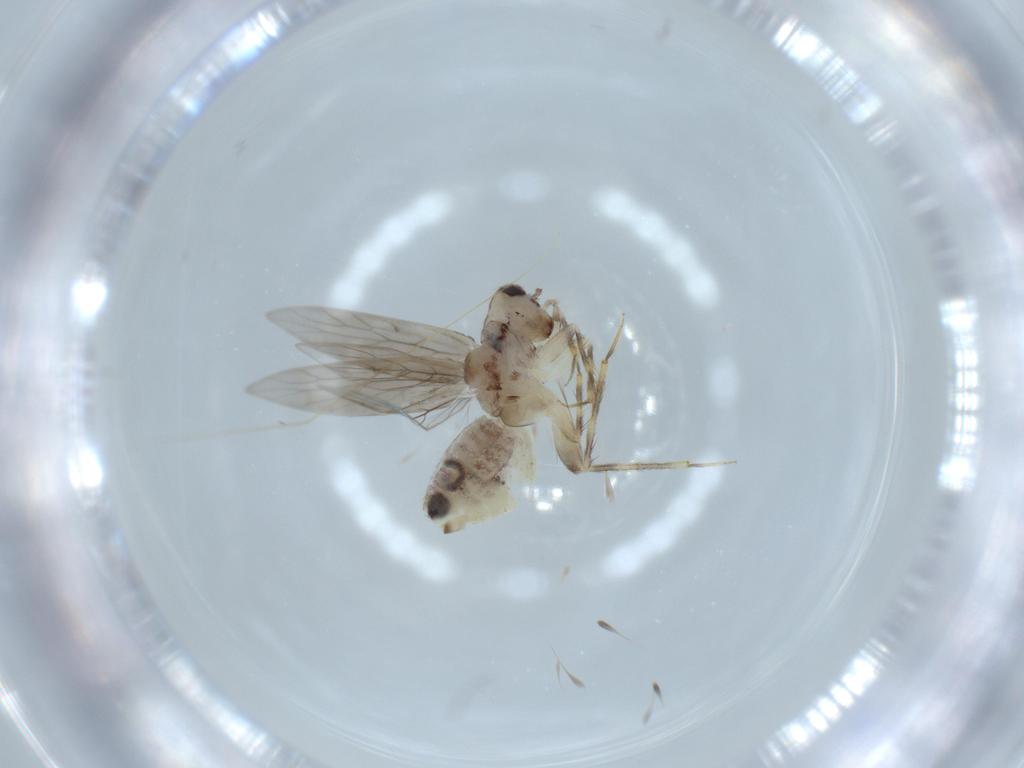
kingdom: Animalia
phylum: Arthropoda
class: Insecta
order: Psocodea
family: Lepidopsocidae
